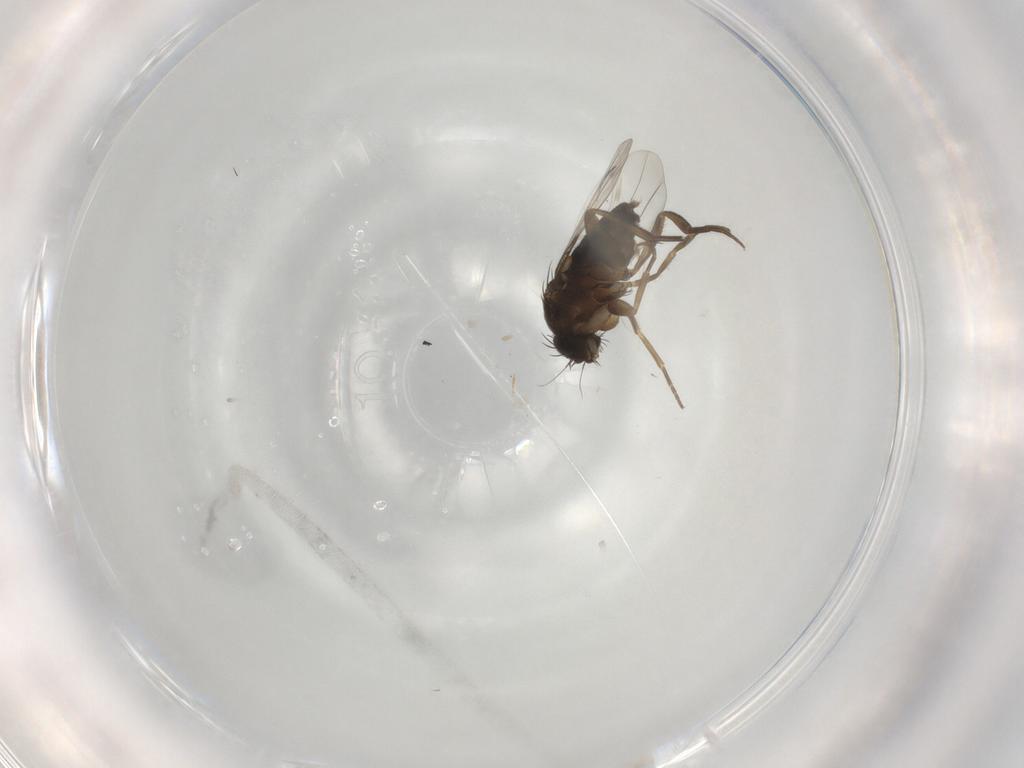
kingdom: Animalia
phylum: Arthropoda
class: Insecta
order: Diptera
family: Phoridae
